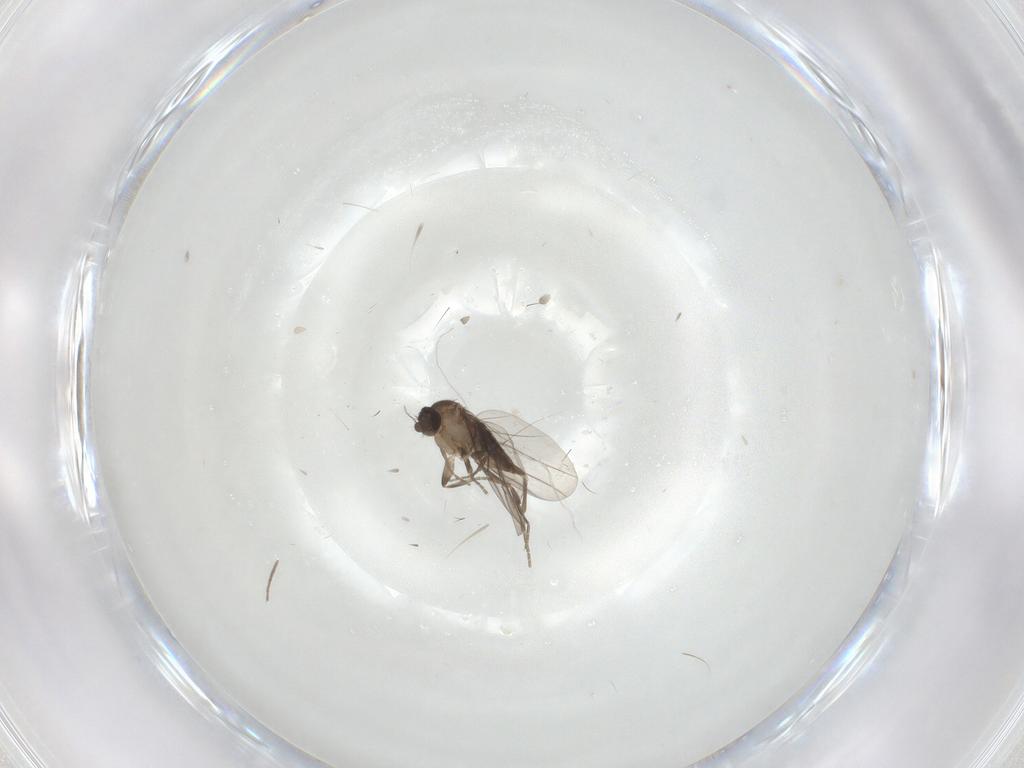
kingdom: Animalia
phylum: Arthropoda
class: Insecta
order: Diptera
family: Chironomidae
